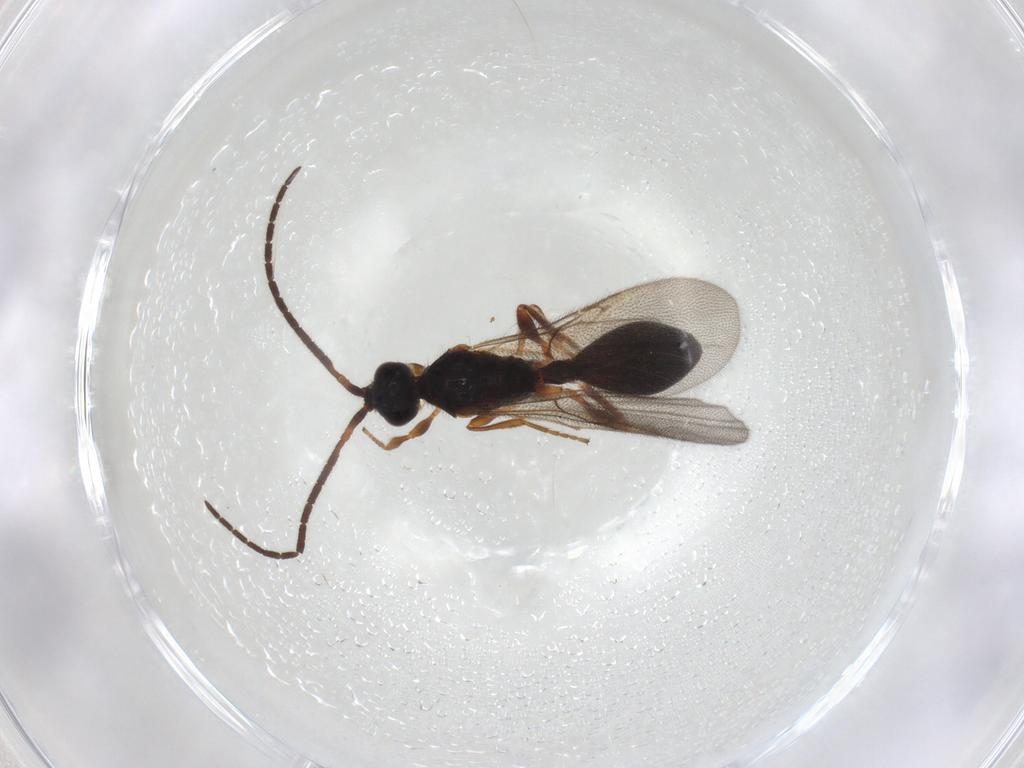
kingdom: Animalia
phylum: Arthropoda
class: Insecta
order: Hymenoptera
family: Diapriidae
